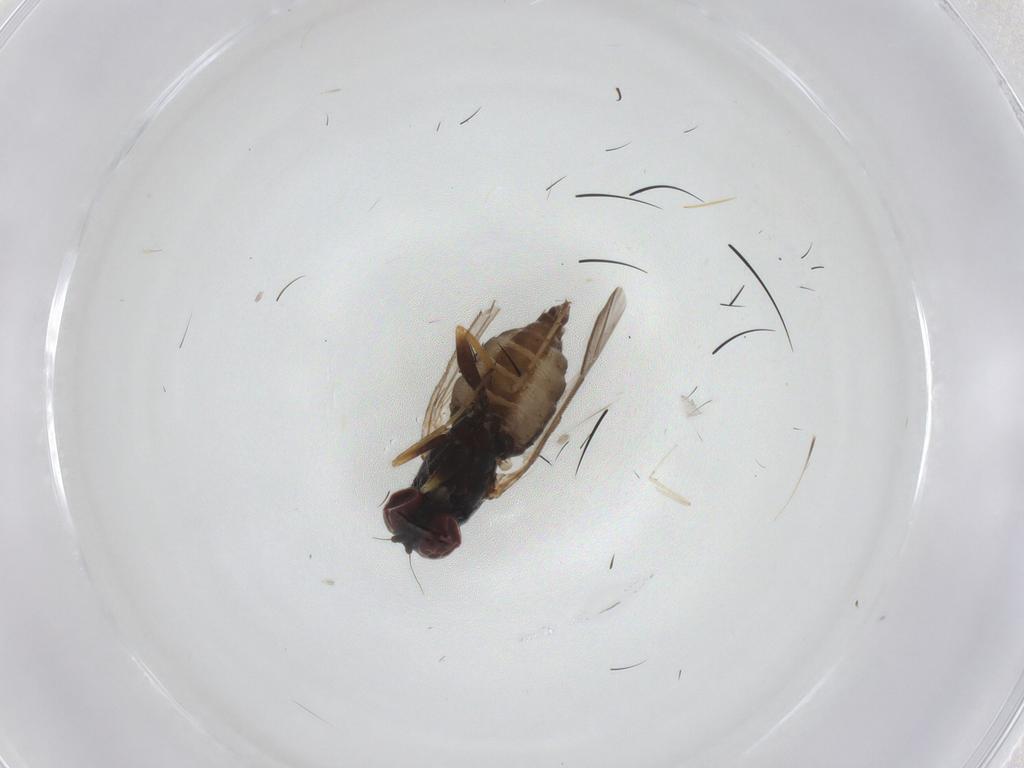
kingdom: Animalia
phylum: Arthropoda
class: Insecta
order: Diptera
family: Dolichopodidae
